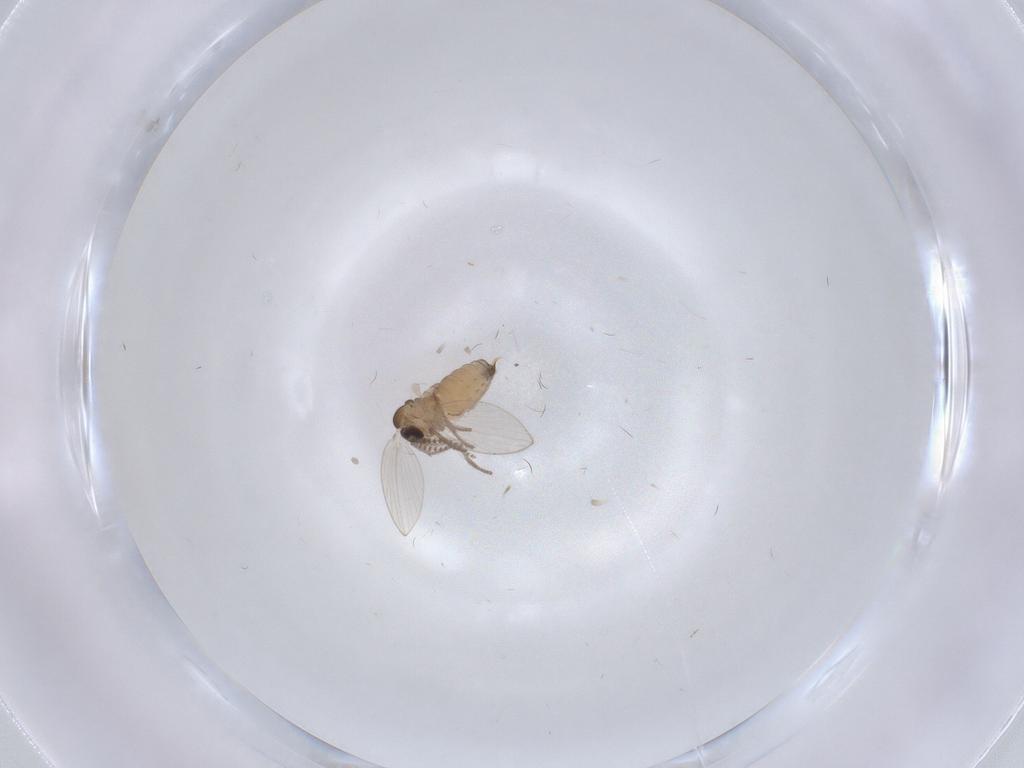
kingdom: Animalia
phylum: Arthropoda
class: Insecta
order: Diptera
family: Psychodidae
